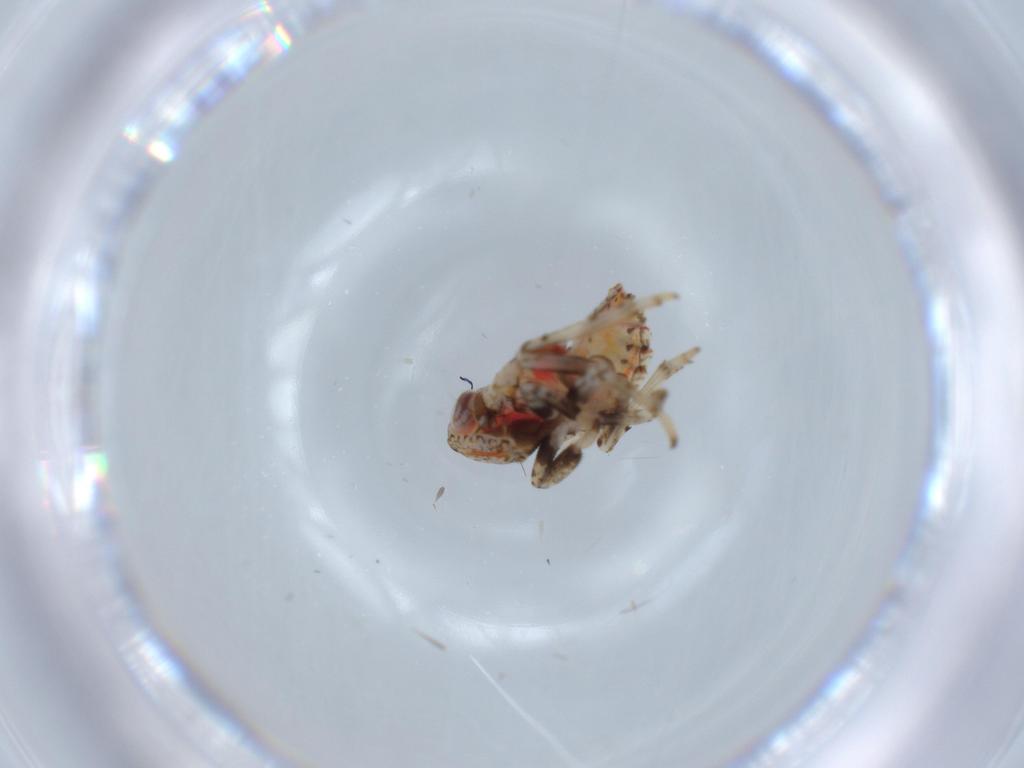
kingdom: Animalia
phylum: Arthropoda
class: Insecta
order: Hemiptera
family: Issidae
